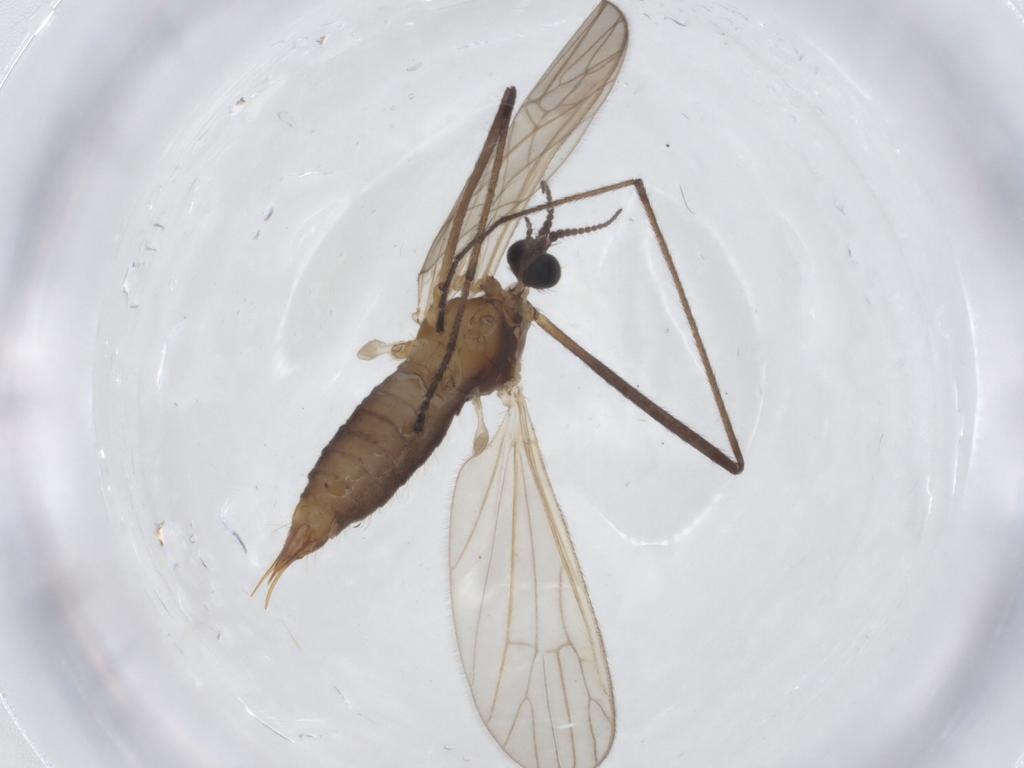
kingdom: Animalia
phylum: Arthropoda
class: Insecta
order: Diptera
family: Agromyzidae
